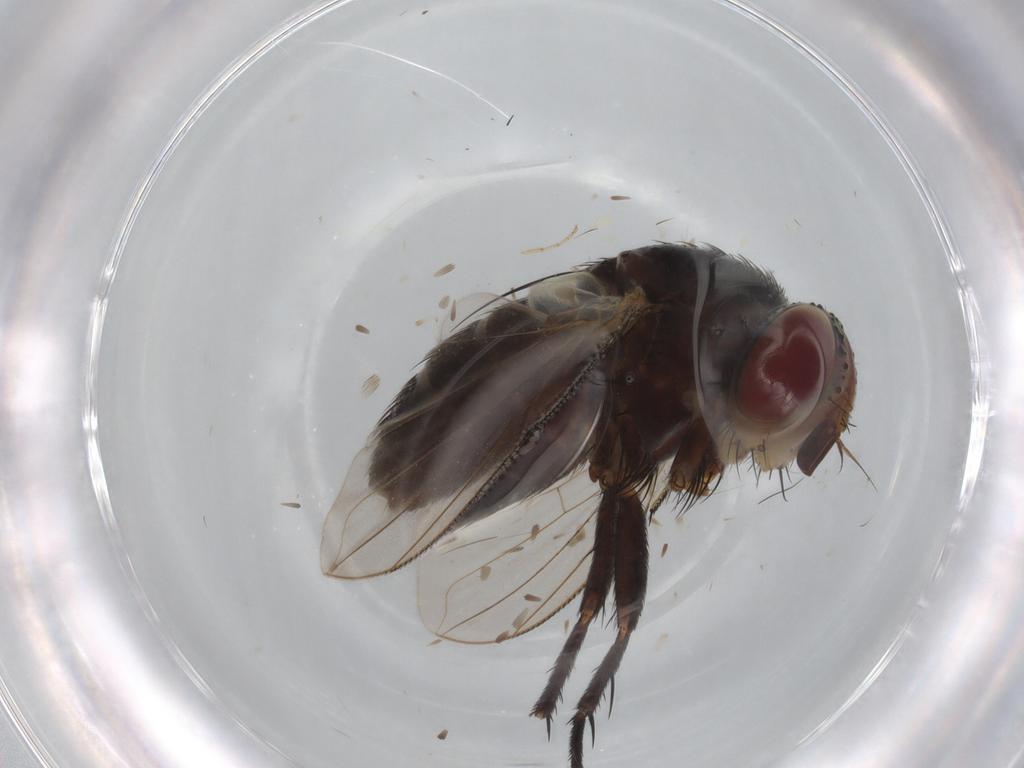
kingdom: Animalia
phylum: Arthropoda
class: Insecta
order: Diptera
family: Tachinidae
